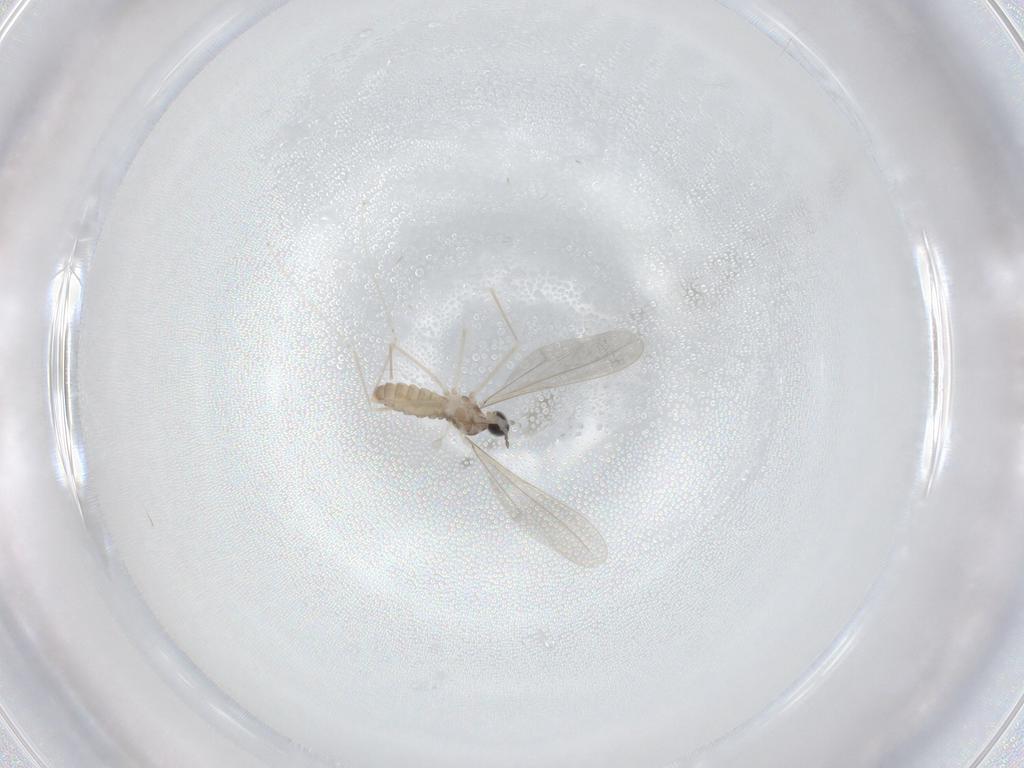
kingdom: Animalia
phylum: Arthropoda
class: Insecta
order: Diptera
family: Cecidomyiidae
